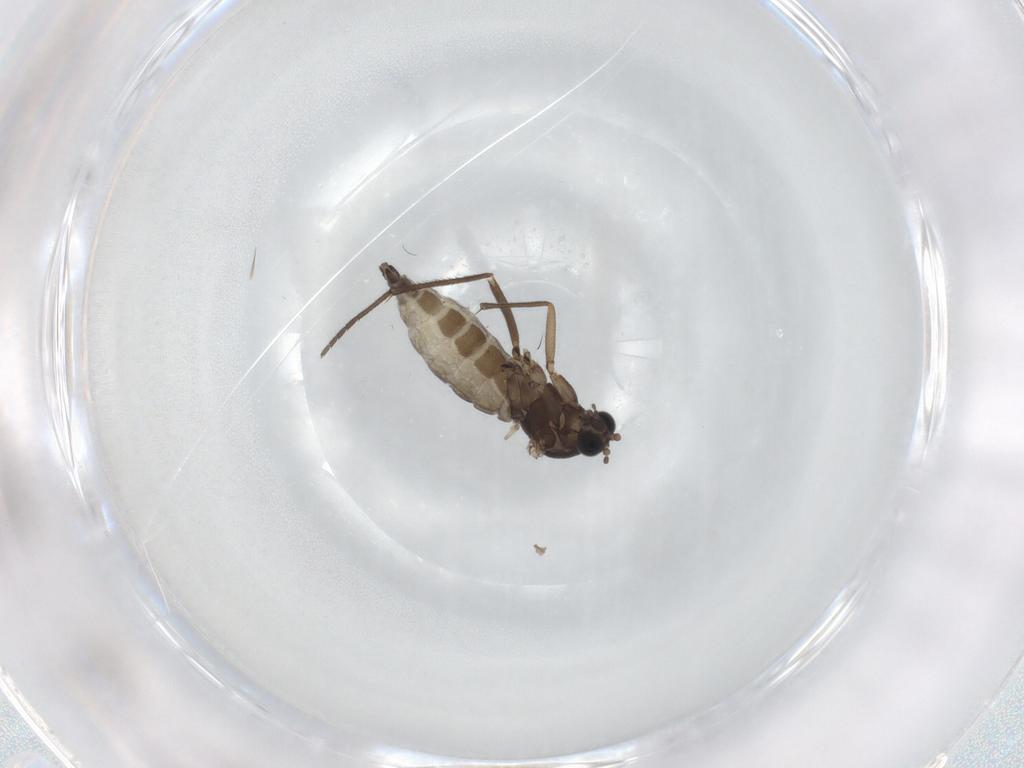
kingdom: Animalia
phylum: Arthropoda
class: Insecta
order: Diptera
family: Sciaridae
